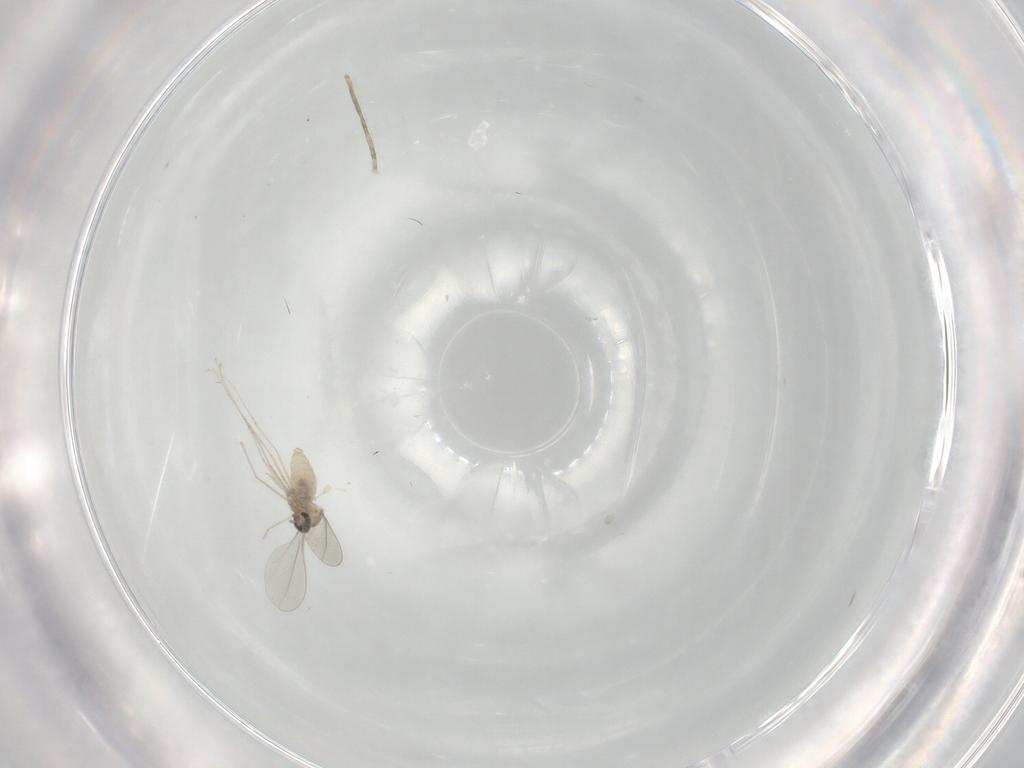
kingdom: Animalia
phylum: Arthropoda
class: Insecta
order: Diptera
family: Cecidomyiidae
